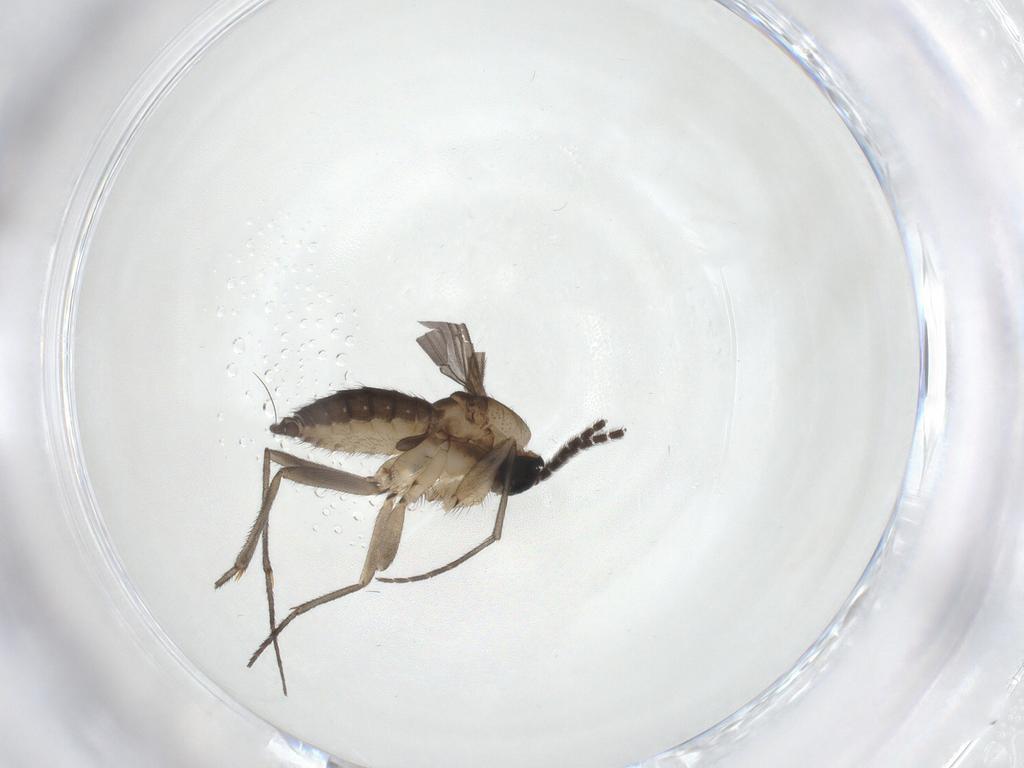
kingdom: Animalia
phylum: Arthropoda
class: Insecta
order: Diptera
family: Sciaridae
